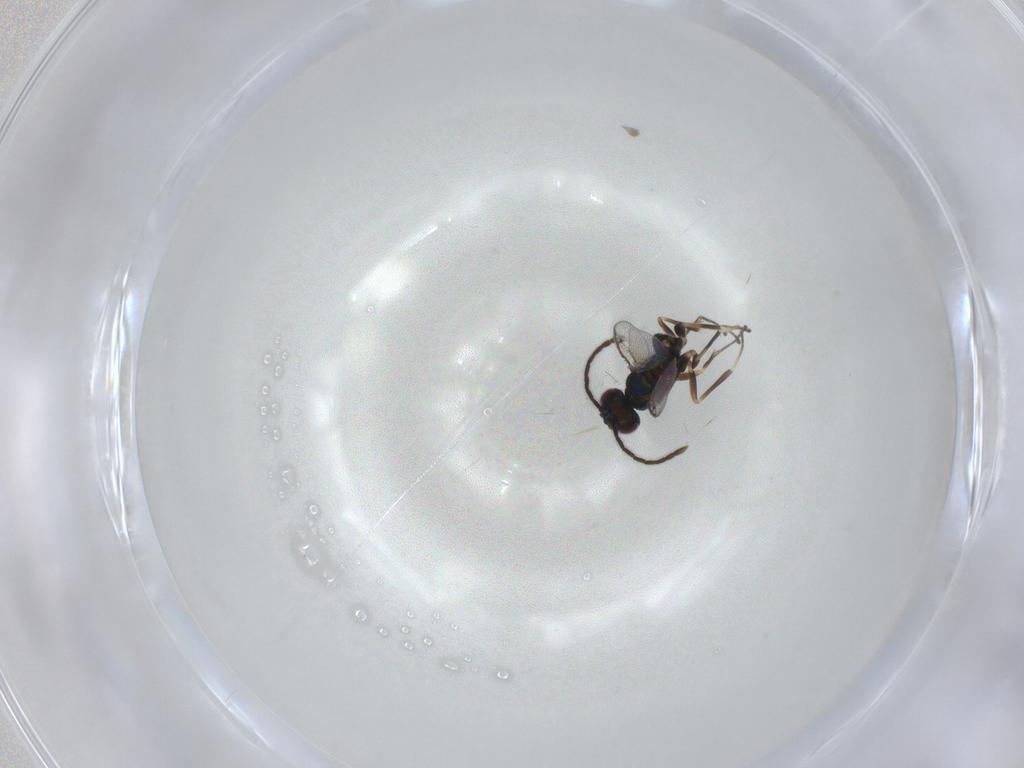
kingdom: Animalia
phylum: Arthropoda
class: Insecta
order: Hymenoptera
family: Eupelmidae
